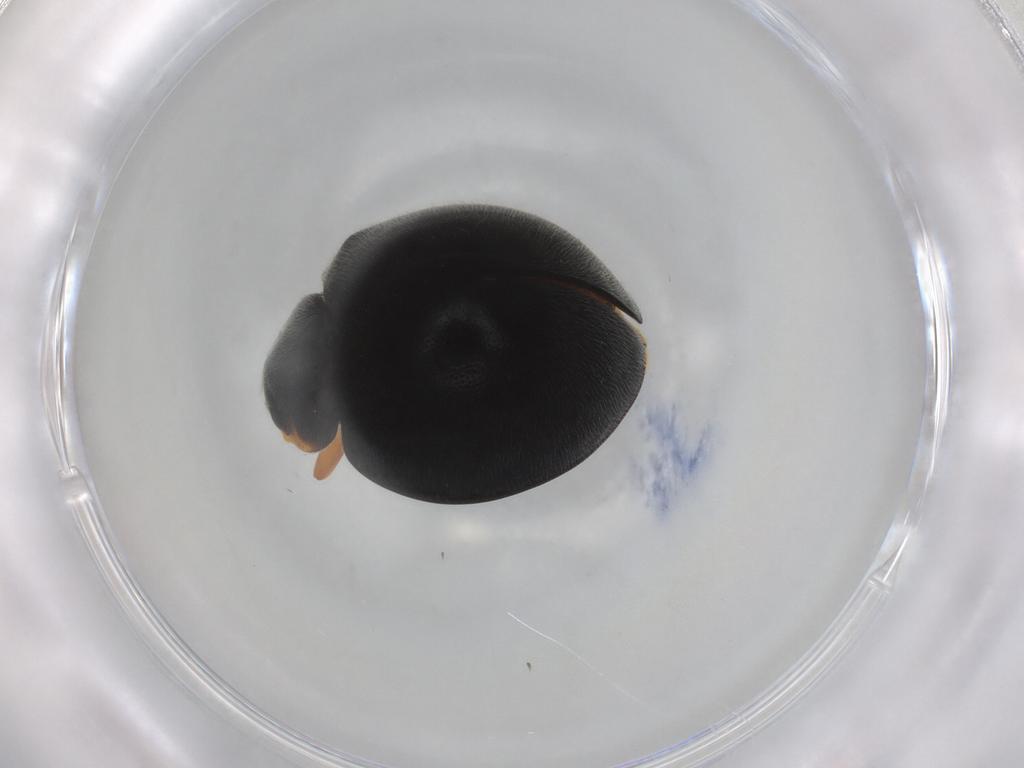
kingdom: Animalia
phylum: Arthropoda
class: Insecta
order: Coleoptera
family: Coccinellidae
